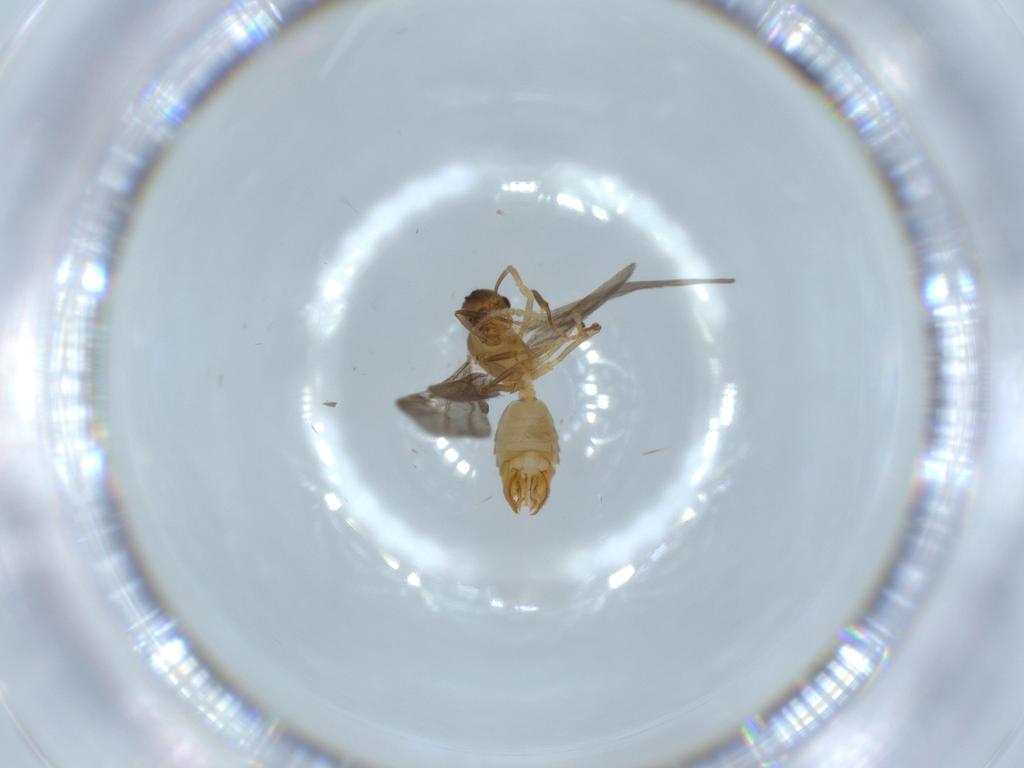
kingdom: Animalia
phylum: Arthropoda
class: Insecta
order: Hymenoptera
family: Formicidae
